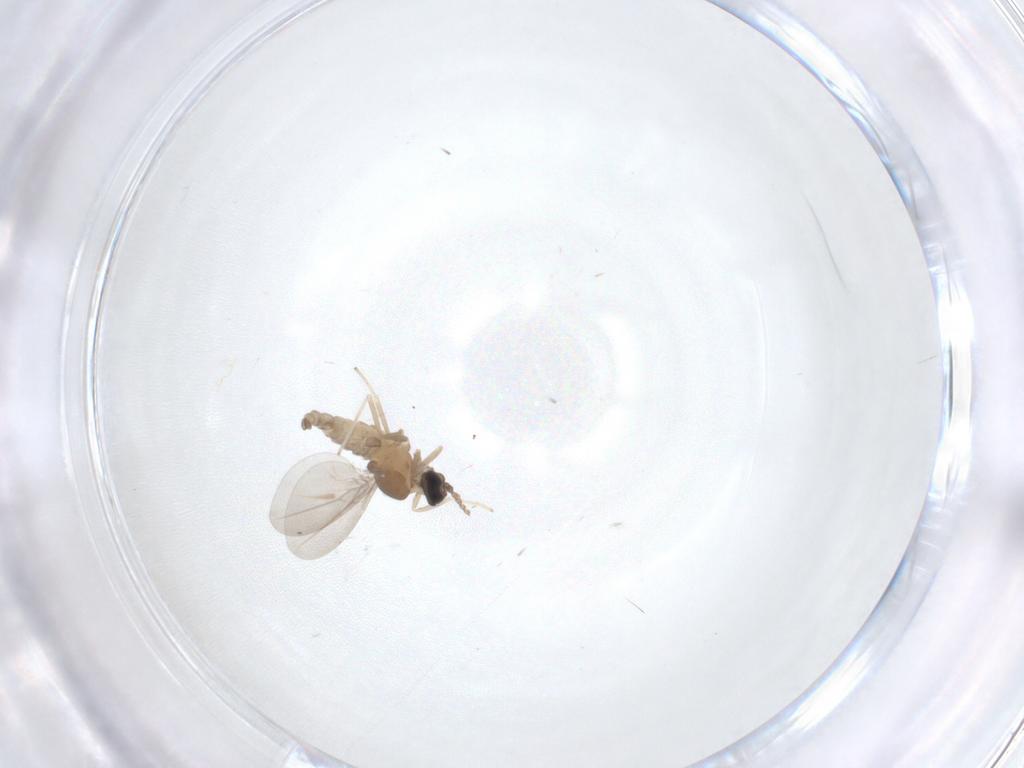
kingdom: Animalia
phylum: Arthropoda
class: Insecta
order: Diptera
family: Cecidomyiidae
